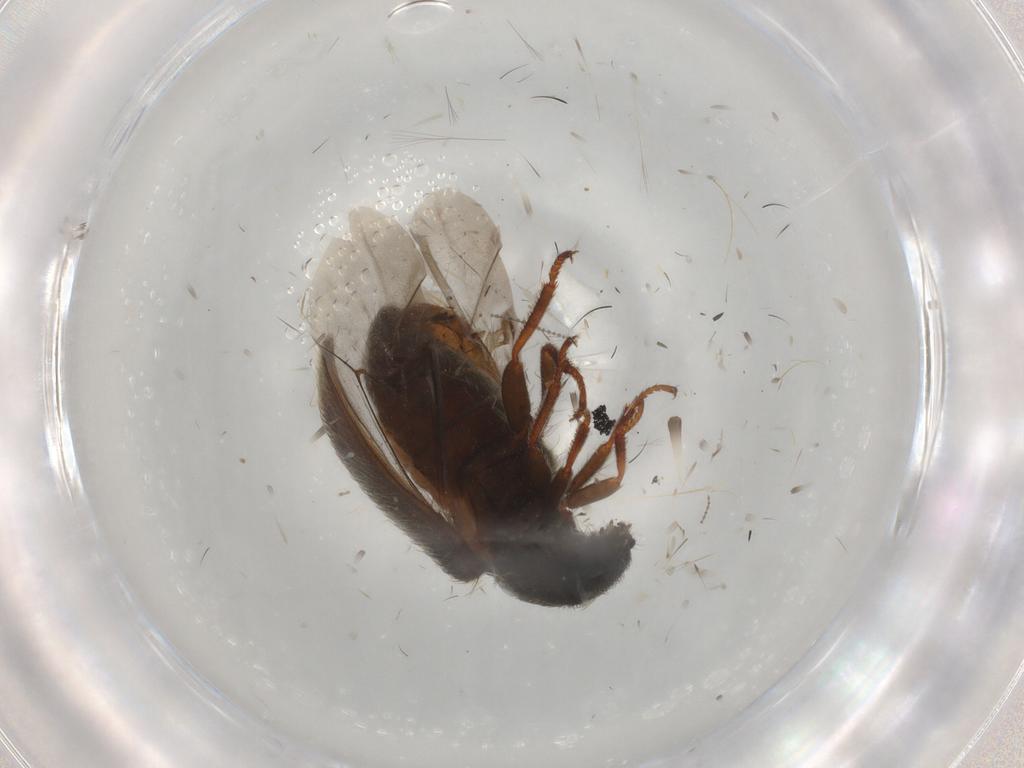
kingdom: Animalia
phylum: Arthropoda
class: Insecta
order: Coleoptera
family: Melyridae
